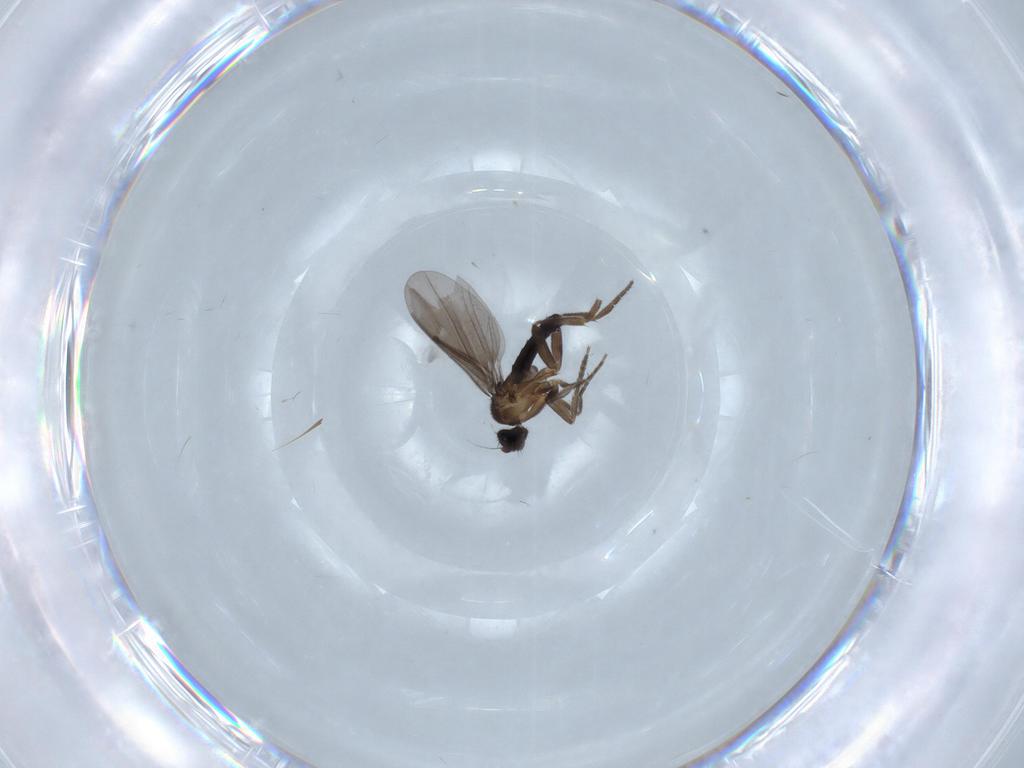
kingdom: Animalia
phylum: Arthropoda
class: Insecta
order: Diptera
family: Phoridae
